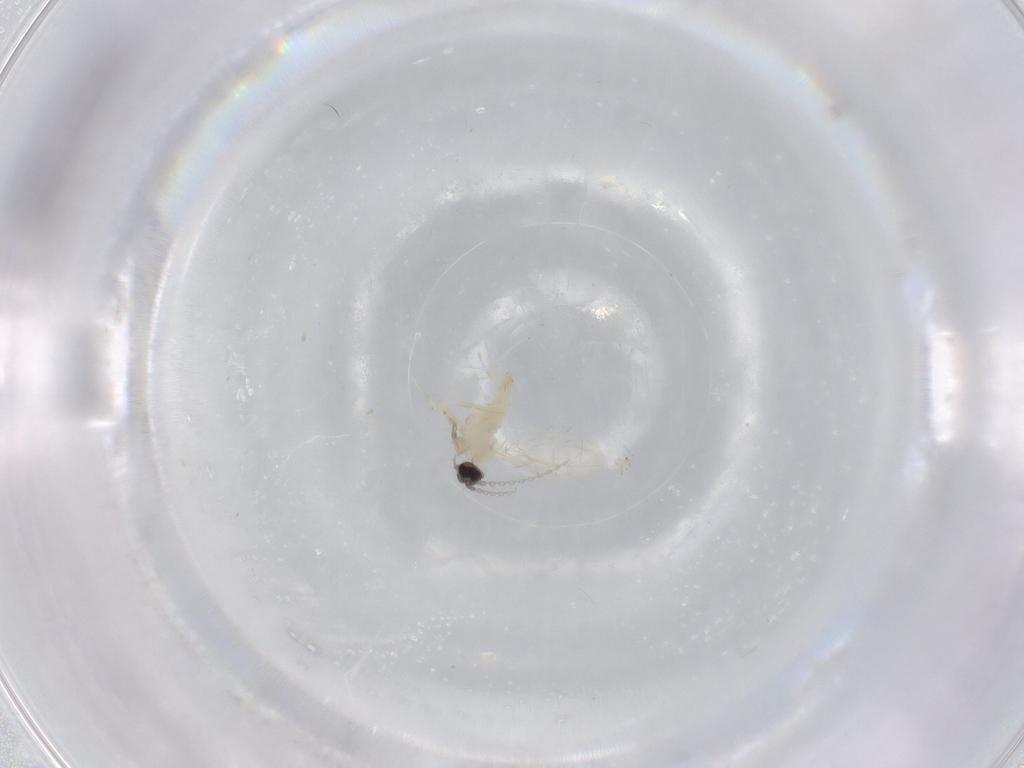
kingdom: Animalia
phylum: Arthropoda
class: Insecta
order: Diptera
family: Cecidomyiidae
